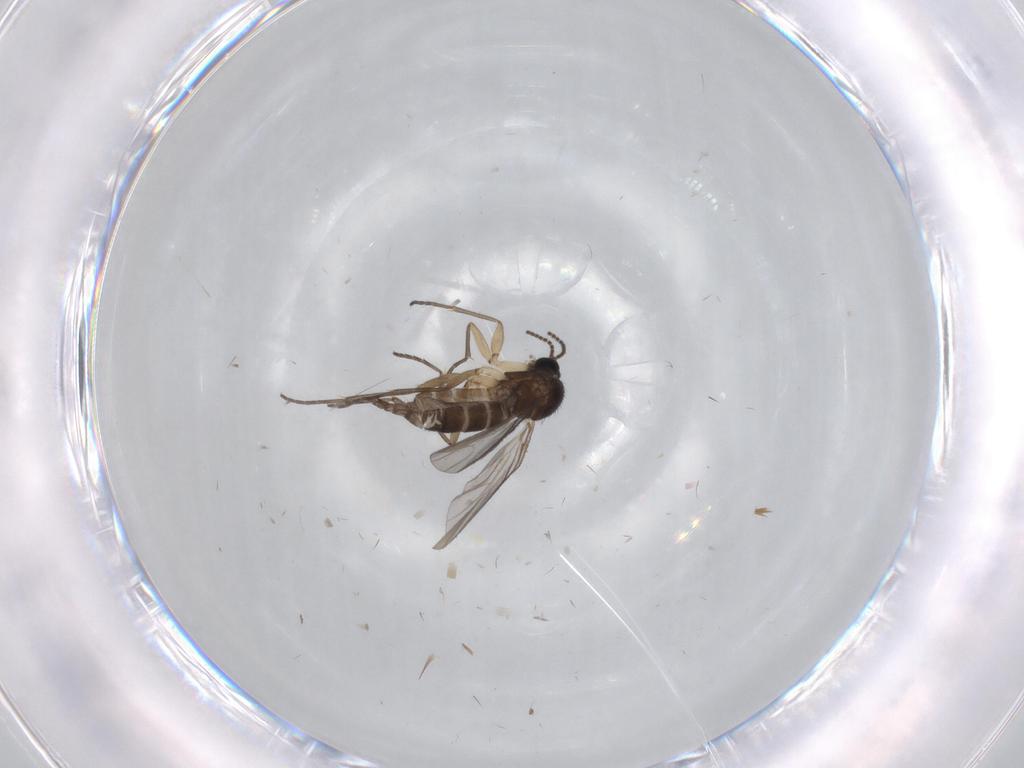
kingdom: Animalia
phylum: Arthropoda
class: Insecta
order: Diptera
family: Sciaridae
